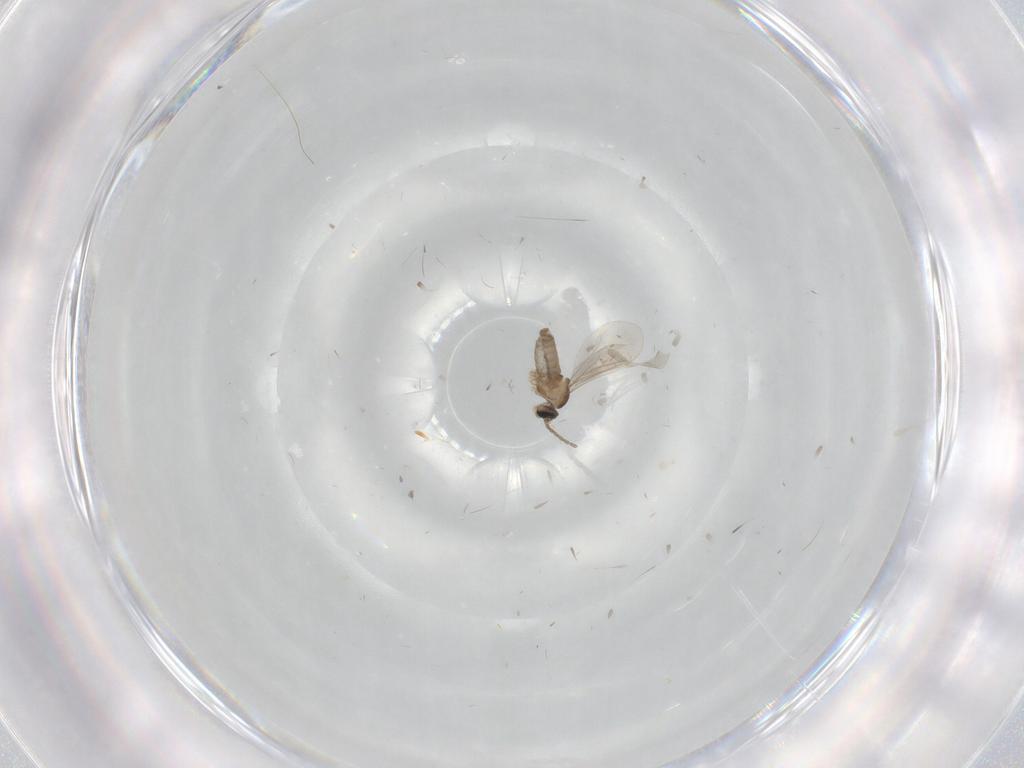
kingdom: Animalia
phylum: Arthropoda
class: Insecta
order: Diptera
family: Cecidomyiidae
